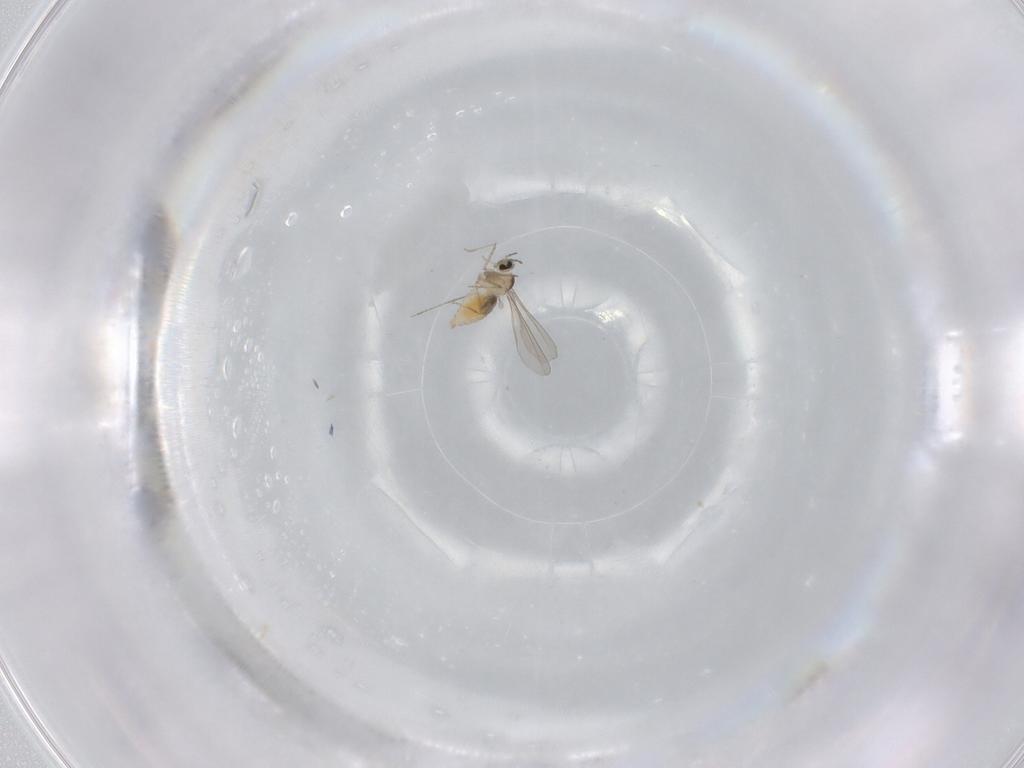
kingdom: Animalia
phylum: Arthropoda
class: Insecta
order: Diptera
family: Cecidomyiidae
